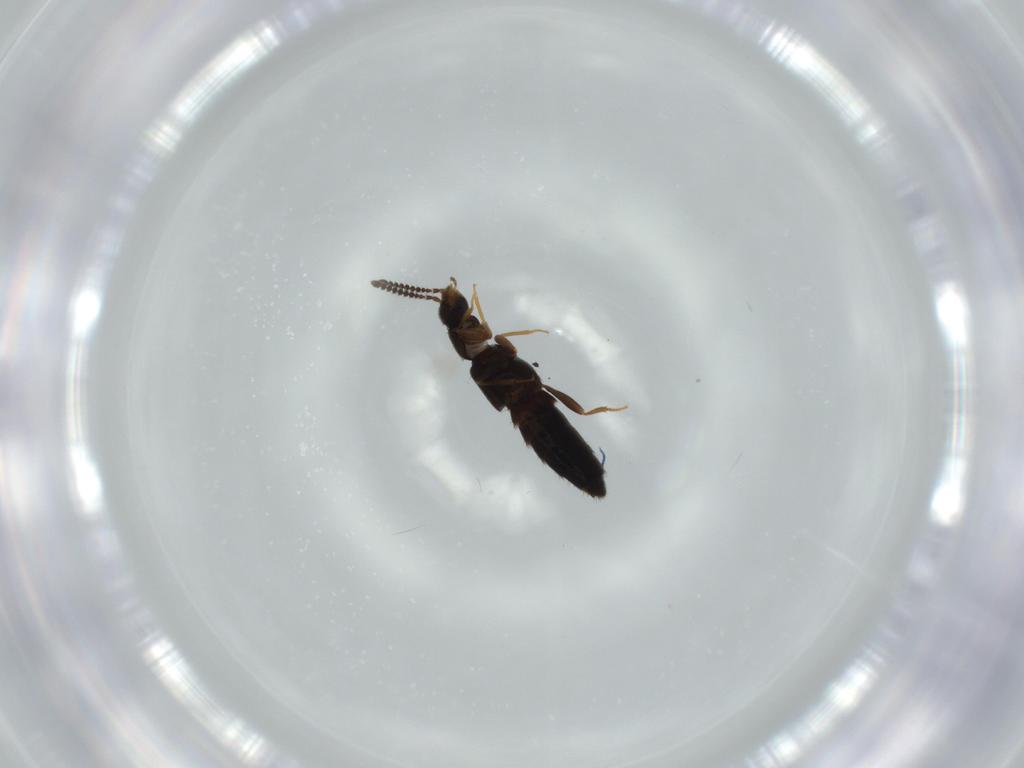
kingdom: Animalia
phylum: Arthropoda
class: Insecta
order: Coleoptera
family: Staphylinidae
